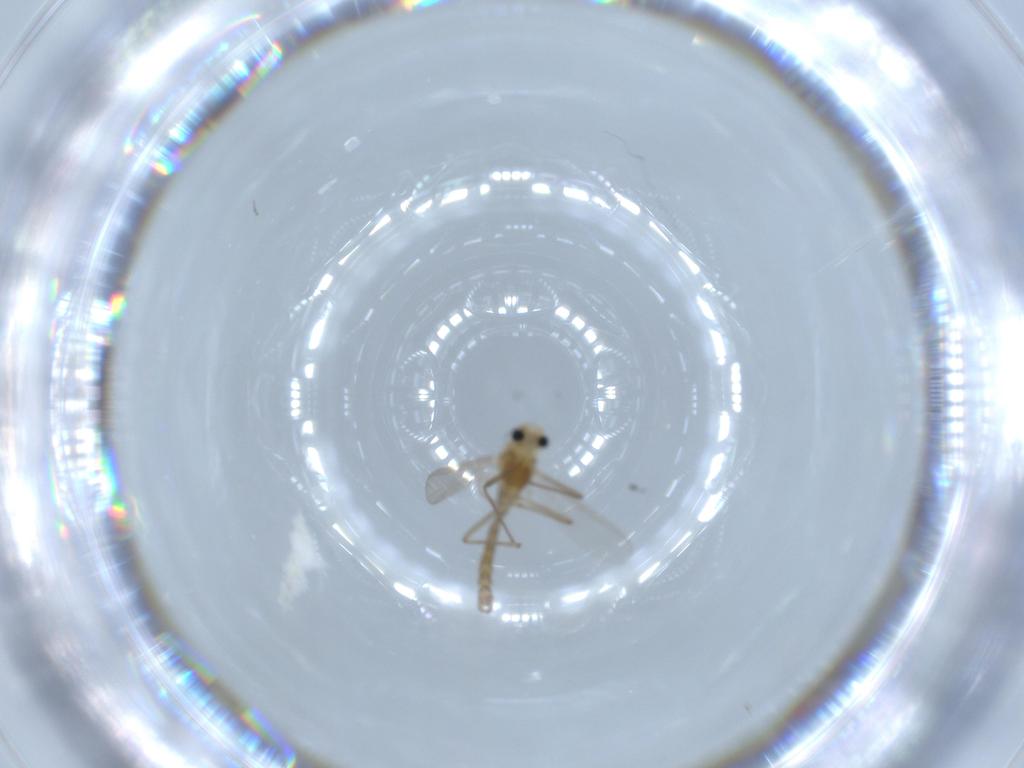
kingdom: Animalia
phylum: Arthropoda
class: Insecta
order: Diptera
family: Chironomidae
